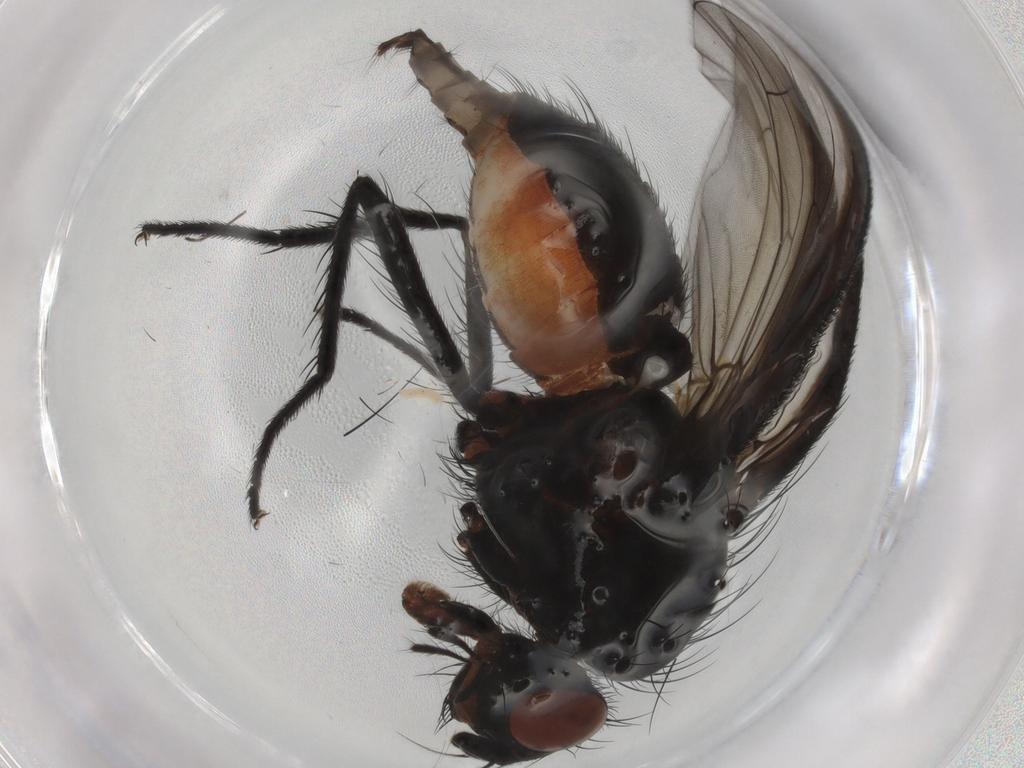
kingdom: Animalia
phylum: Arthropoda
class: Insecta
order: Diptera
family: Anthomyiidae
